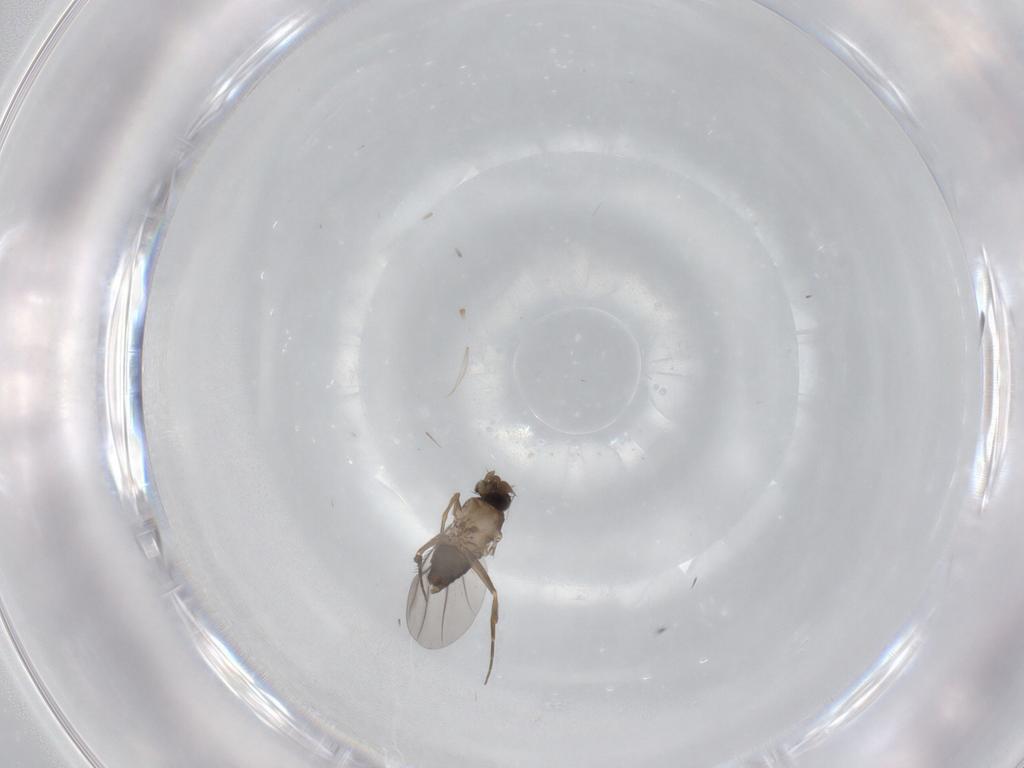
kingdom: Animalia
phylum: Arthropoda
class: Insecta
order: Diptera
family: Phoridae
